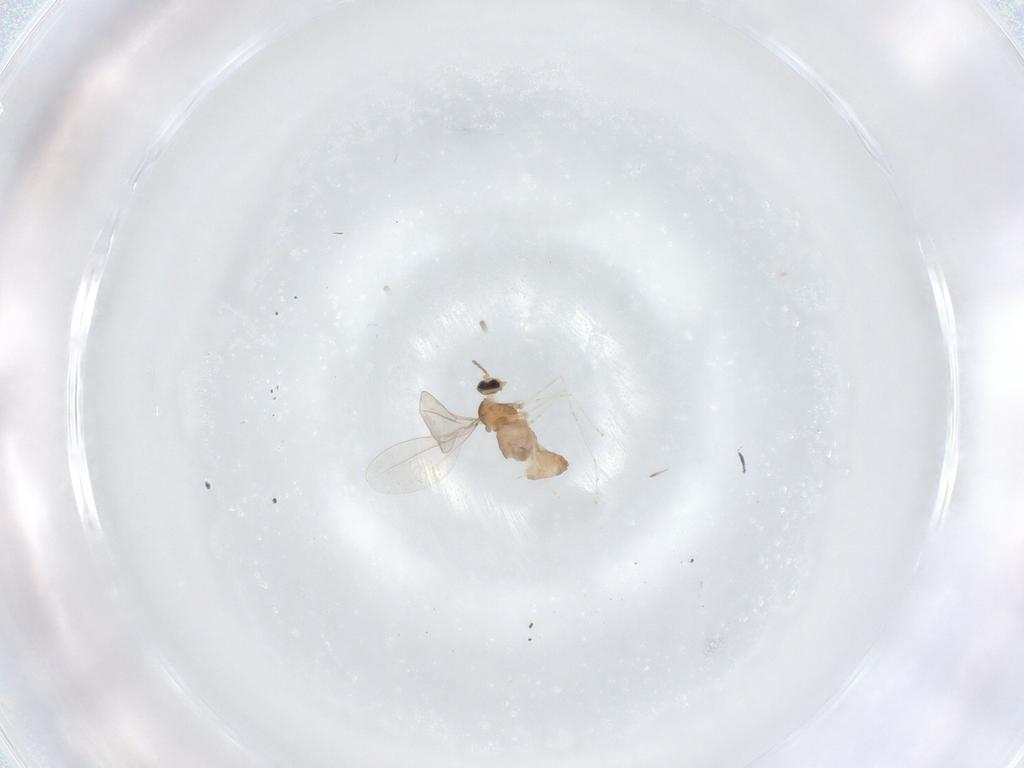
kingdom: Animalia
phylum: Arthropoda
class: Insecta
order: Diptera
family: Cecidomyiidae
